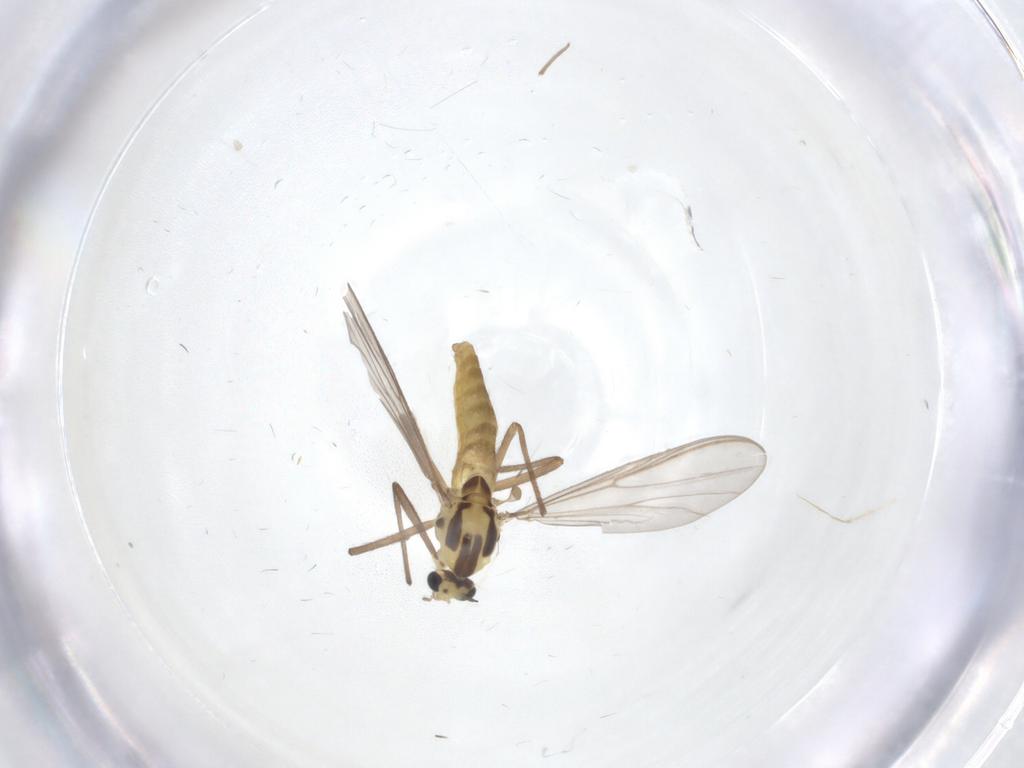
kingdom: Animalia
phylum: Arthropoda
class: Insecta
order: Diptera
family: Chironomidae
